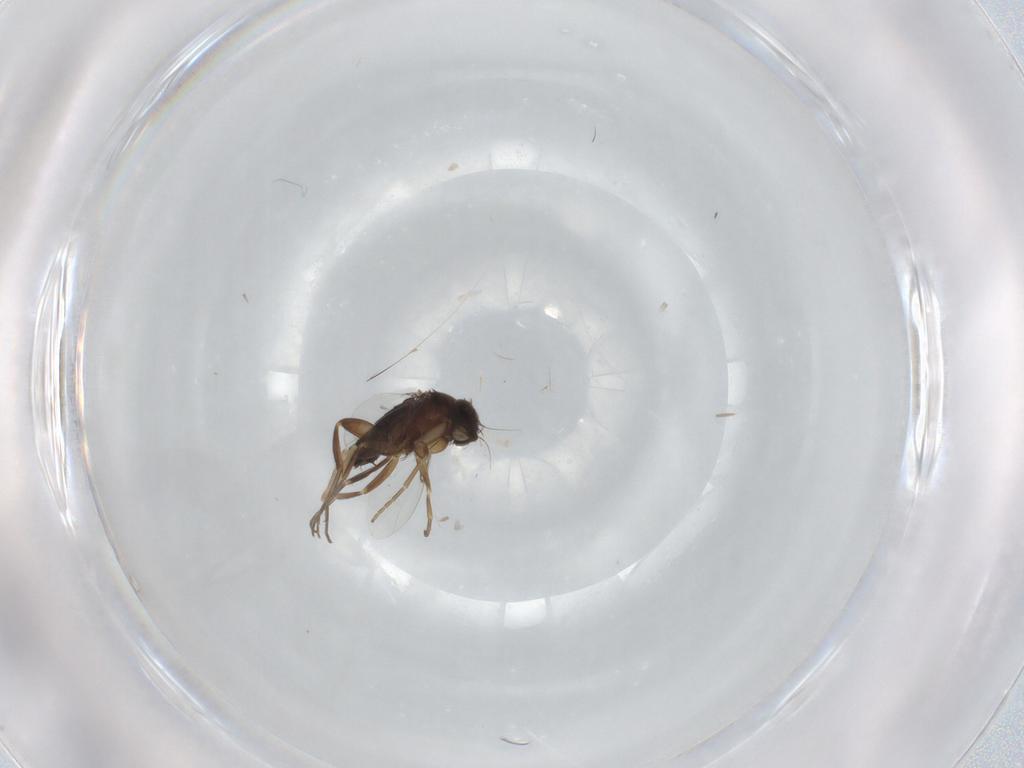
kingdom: Animalia
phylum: Arthropoda
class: Insecta
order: Diptera
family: Phoridae
